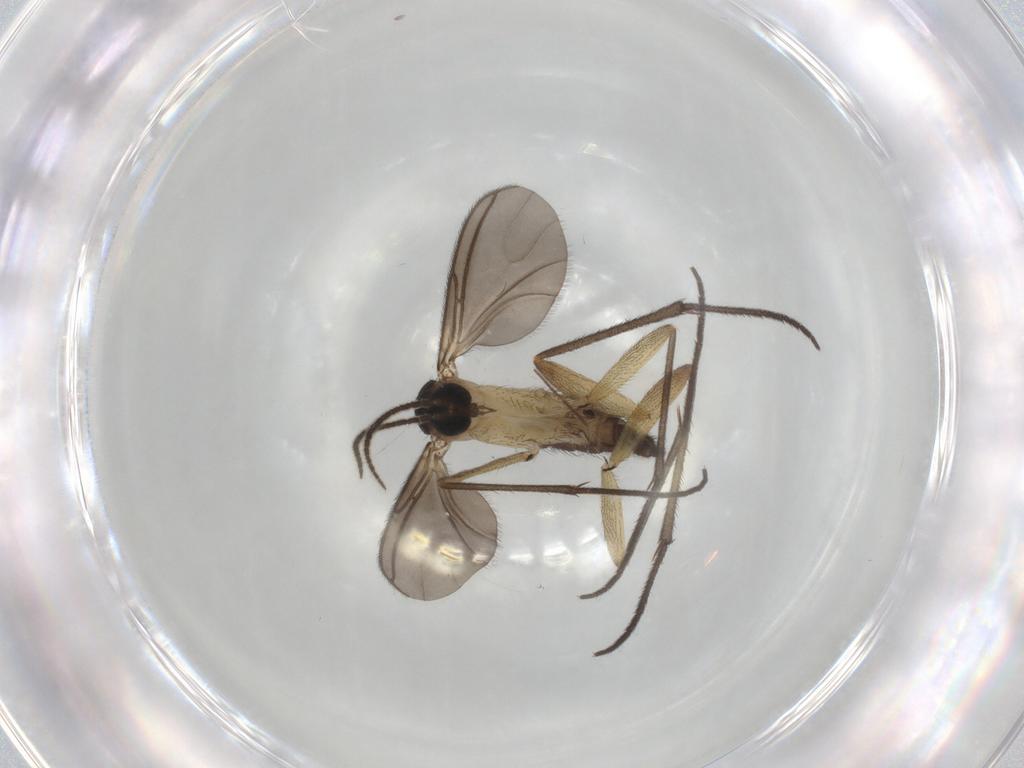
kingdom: Animalia
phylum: Arthropoda
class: Insecta
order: Diptera
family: Sciaridae
